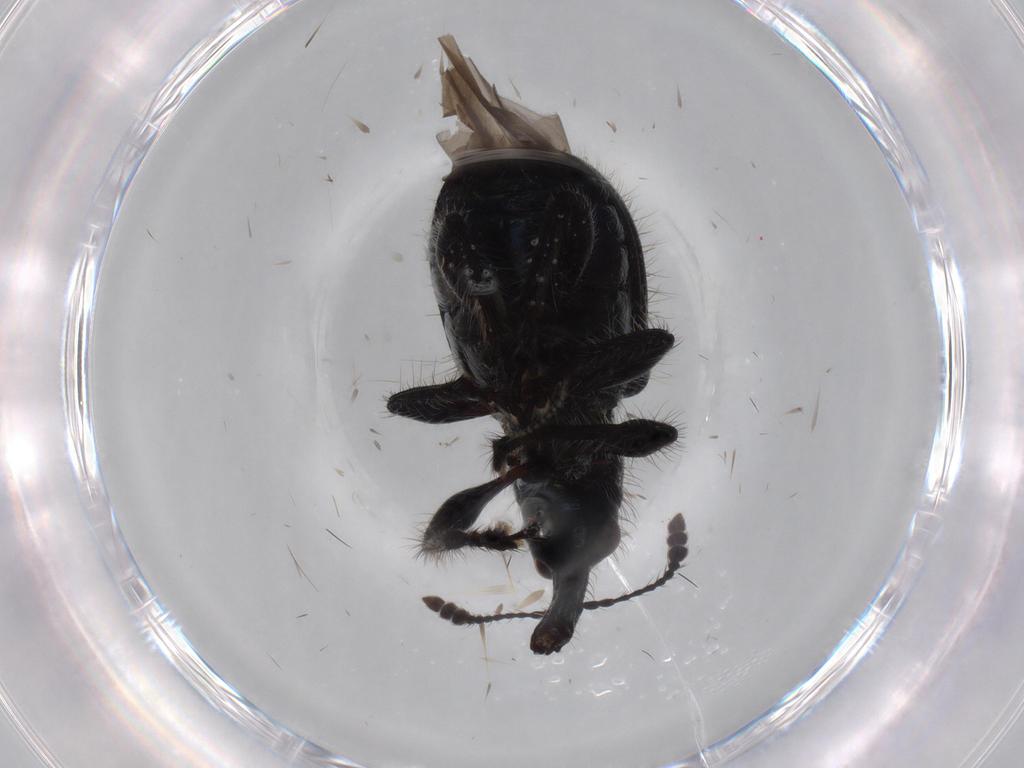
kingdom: Animalia
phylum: Arthropoda
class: Insecta
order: Coleoptera
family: Attelabidae
